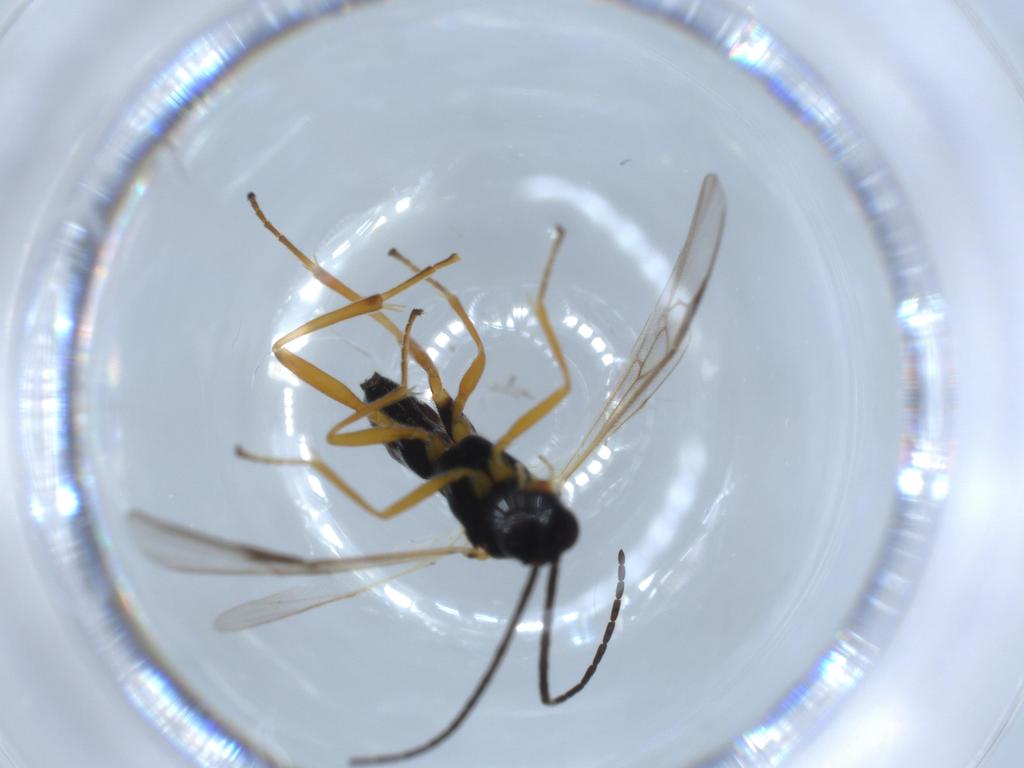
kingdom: Animalia
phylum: Arthropoda
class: Insecta
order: Hymenoptera
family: Braconidae
